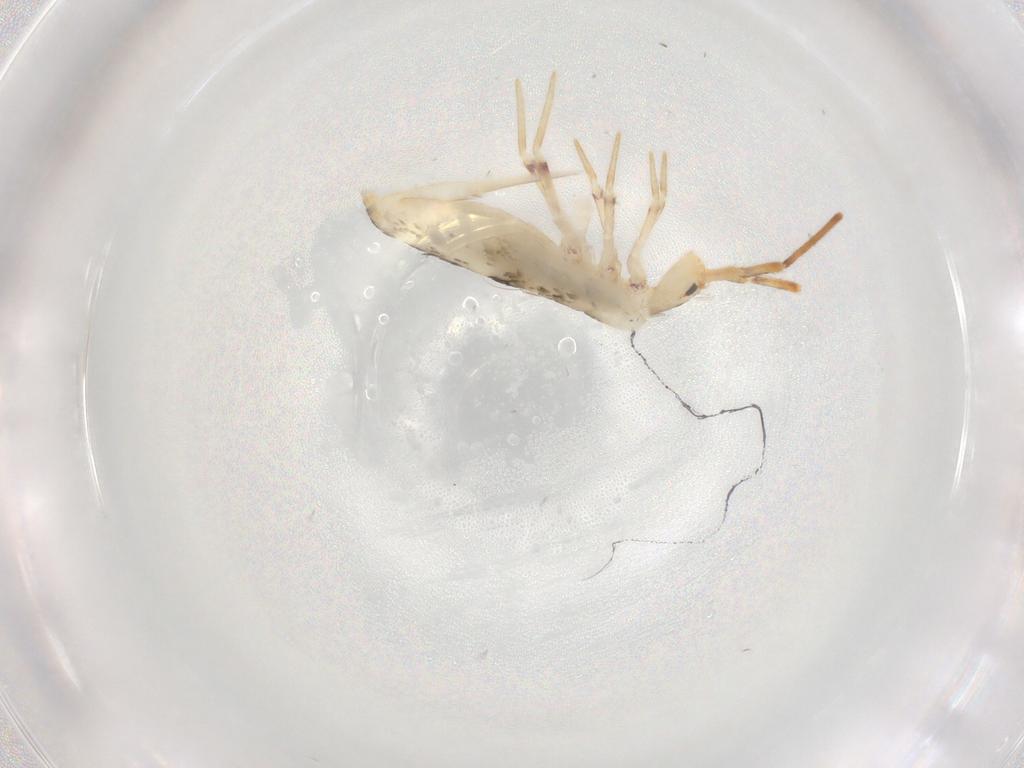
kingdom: Animalia
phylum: Arthropoda
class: Collembola
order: Poduromorpha
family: Hypogastruridae
